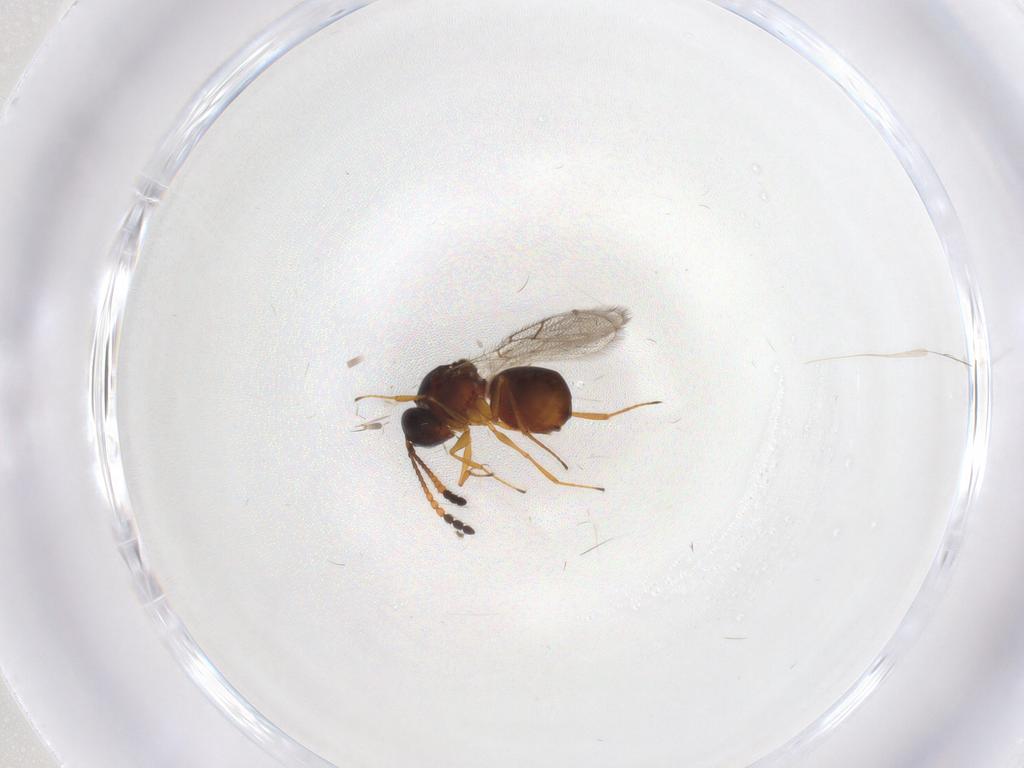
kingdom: Animalia
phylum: Arthropoda
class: Insecta
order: Hymenoptera
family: Figitidae
